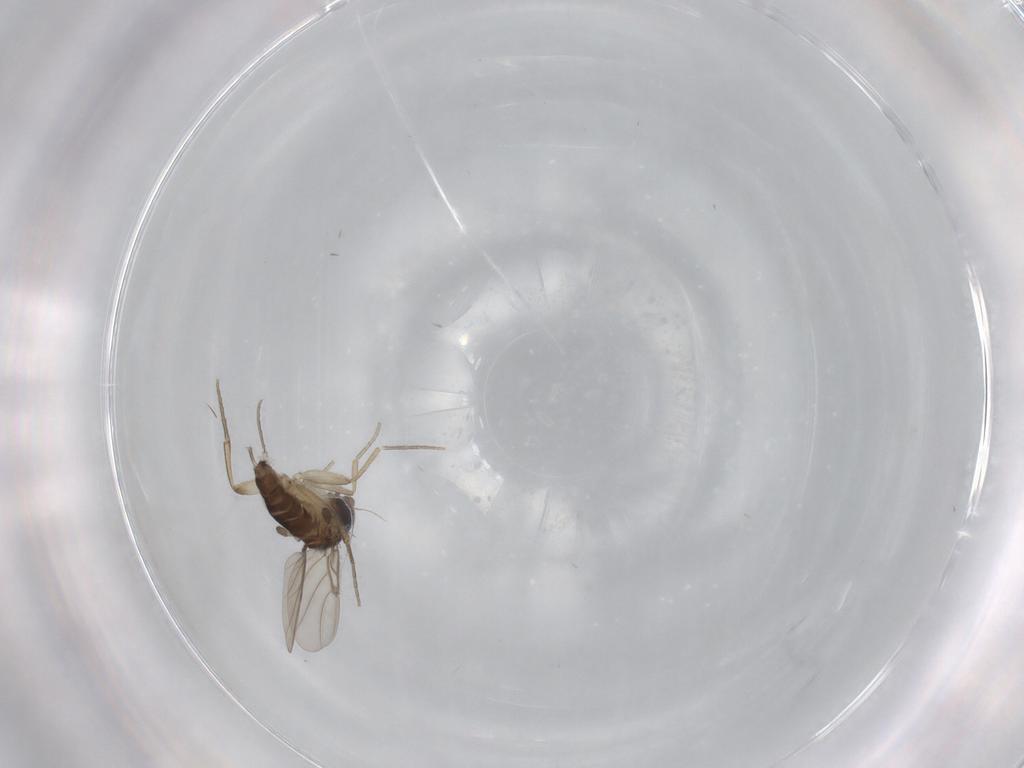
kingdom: Animalia
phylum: Arthropoda
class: Insecta
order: Diptera
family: Phoridae
